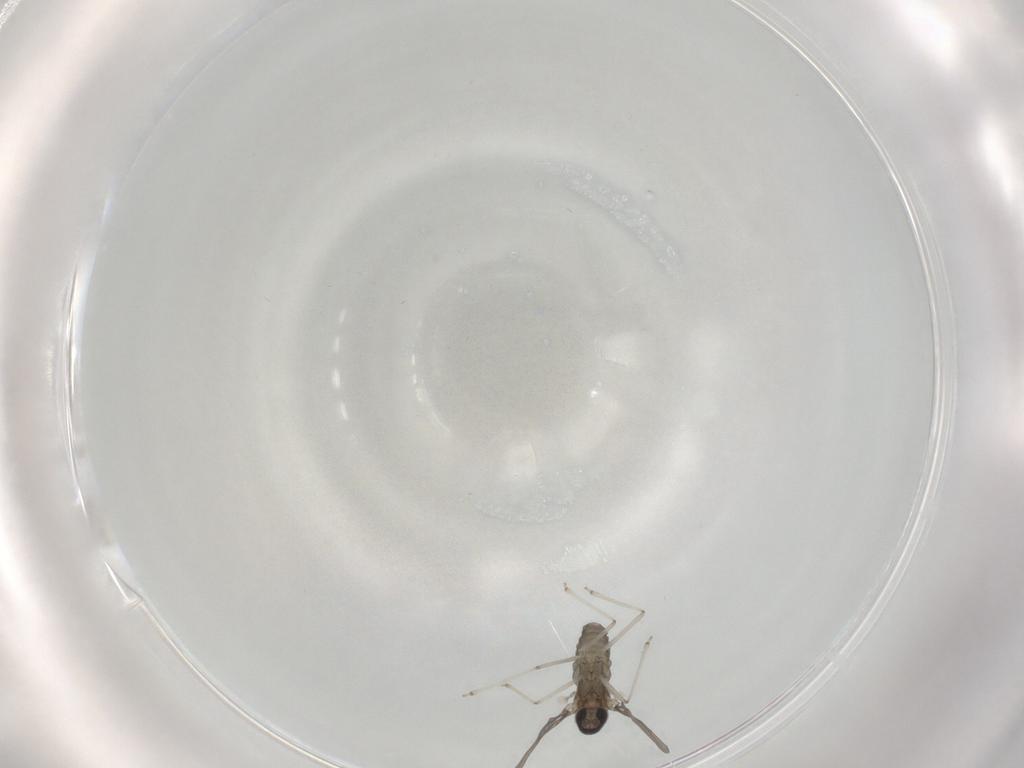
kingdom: Animalia
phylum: Arthropoda
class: Insecta
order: Diptera
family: Cecidomyiidae
